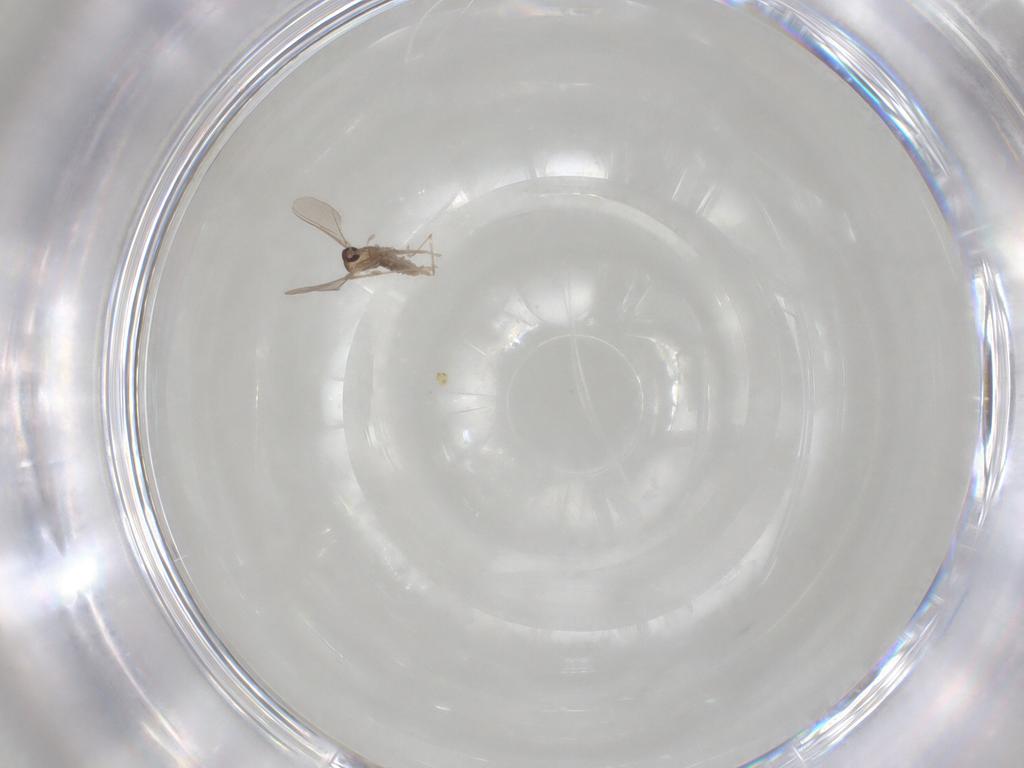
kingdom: Animalia
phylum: Arthropoda
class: Insecta
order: Diptera
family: Cecidomyiidae
